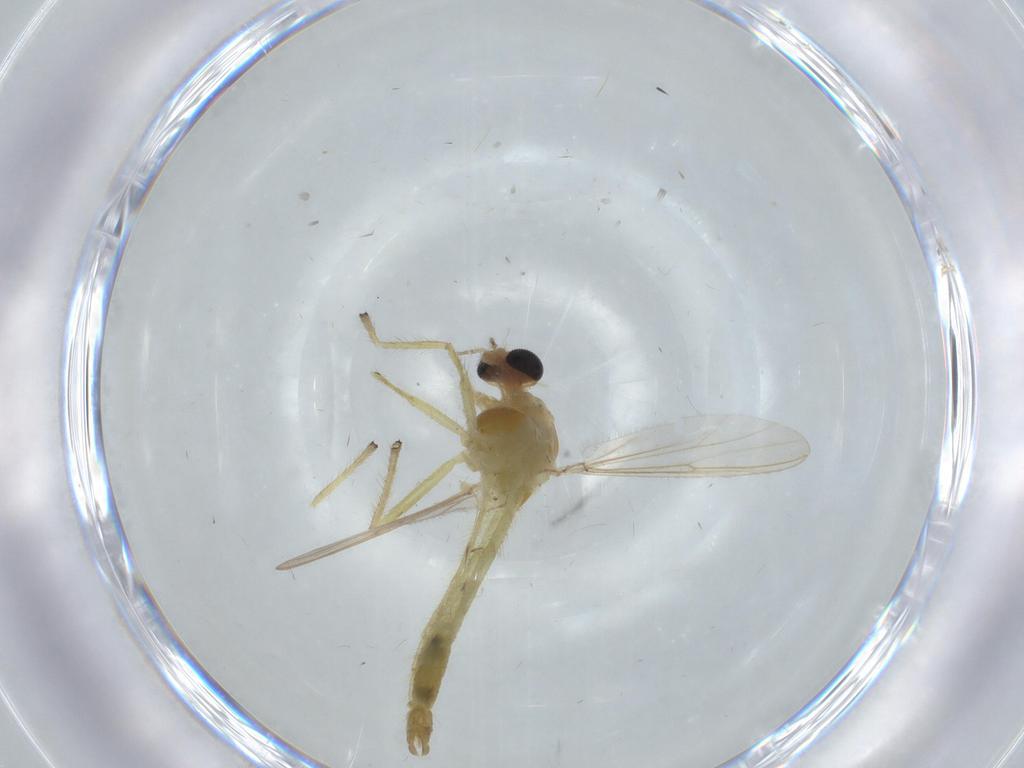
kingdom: Animalia
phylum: Arthropoda
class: Insecta
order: Diptera
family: Chironomidae
